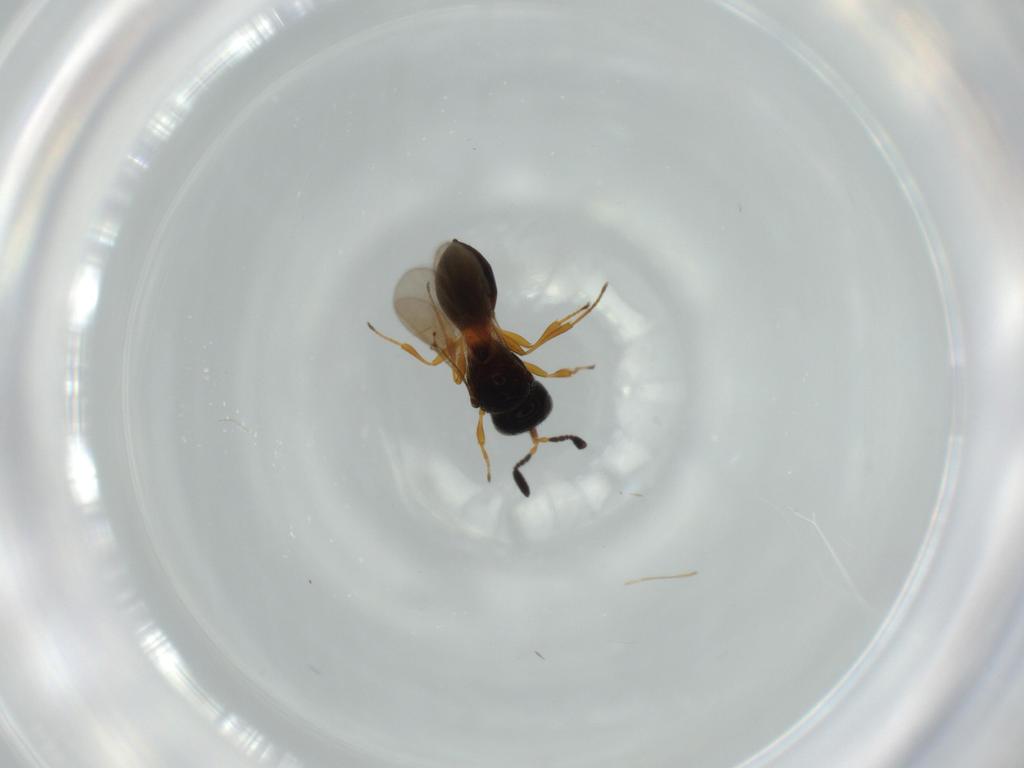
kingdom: Animalia
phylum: Arthropoda
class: Insecta
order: Hymenoptera
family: Scelionidae
